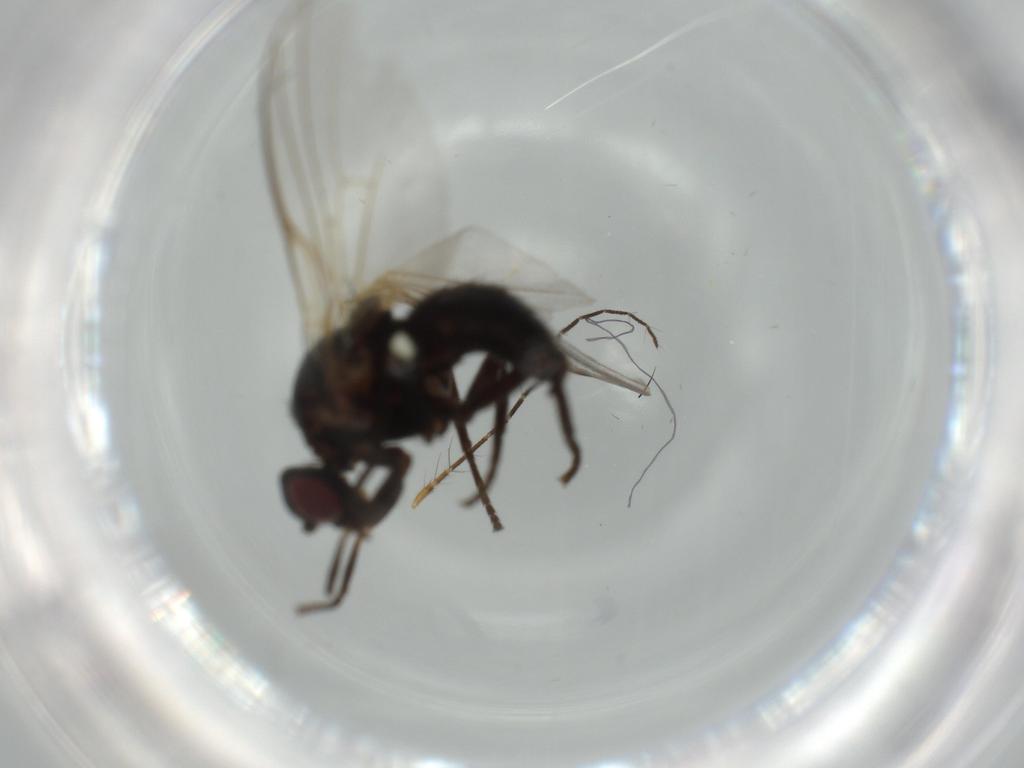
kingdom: Animalia
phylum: Arthropoda
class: Insecta
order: Diptera
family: Agromyzidae
